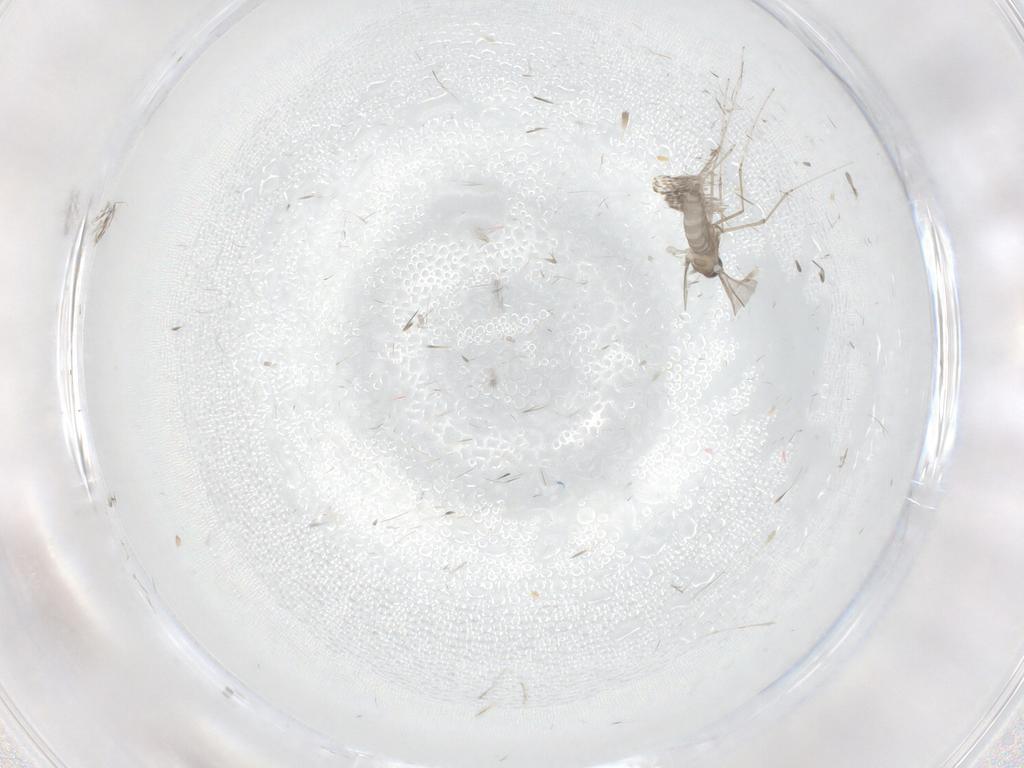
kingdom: Animalia
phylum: Arthropoda
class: Insecta
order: Diptera
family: Cecidomyiidae
